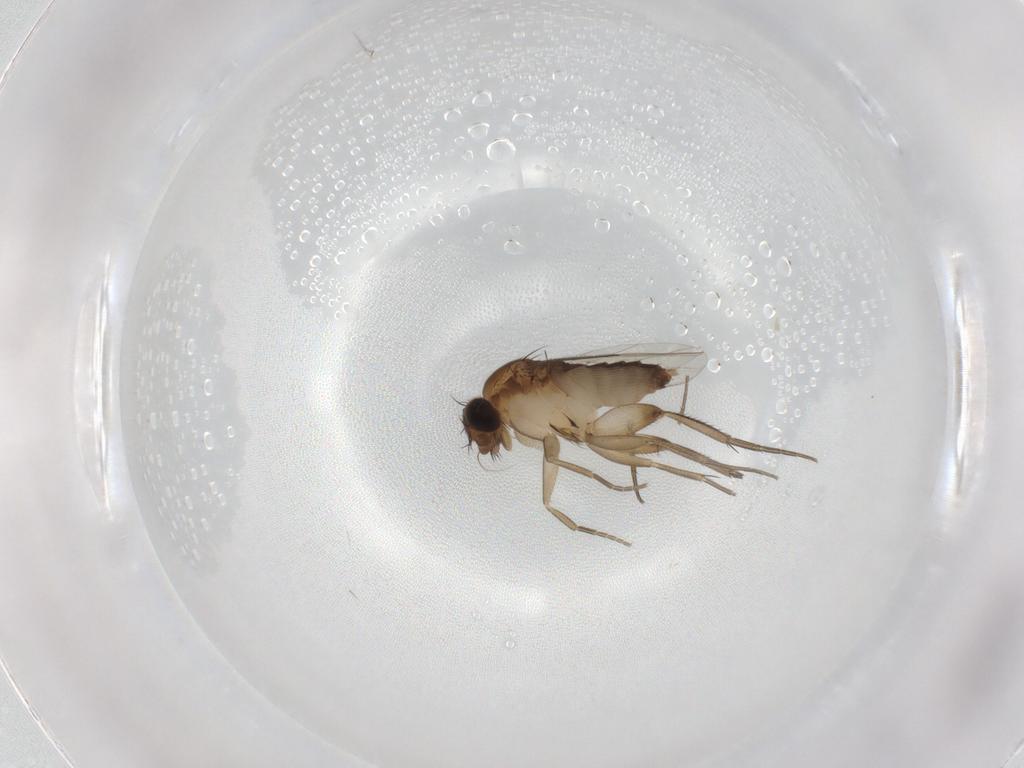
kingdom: Animalia
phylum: Arthropoda
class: Insecta
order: Diptera
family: Phoridae
